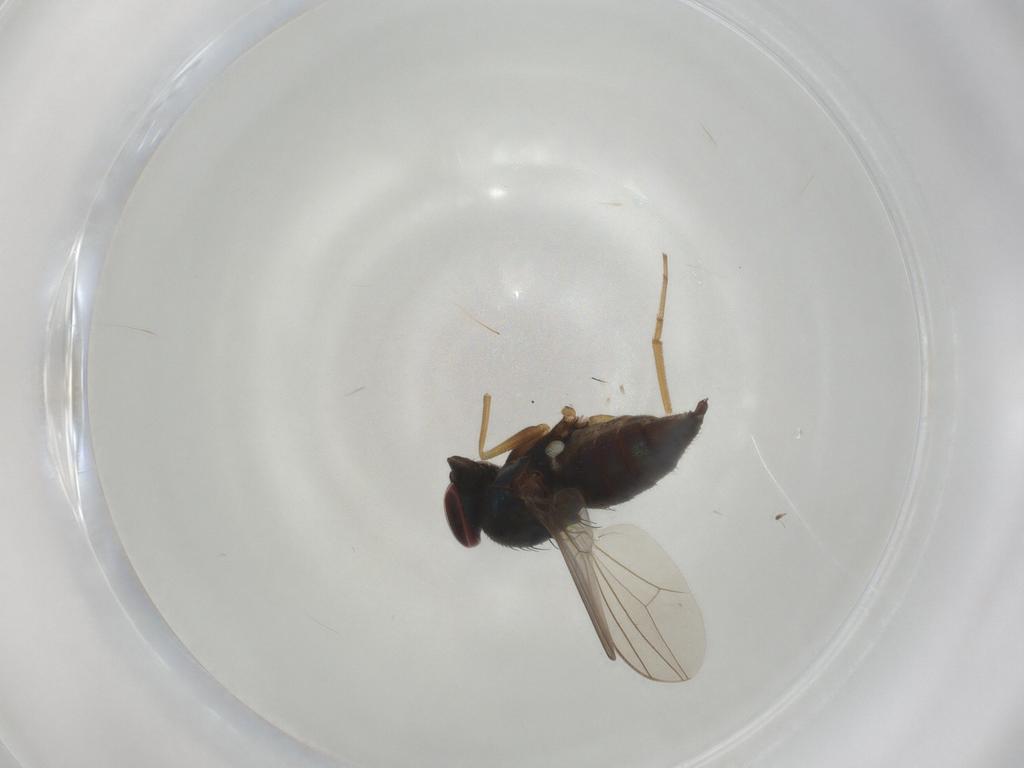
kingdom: Animalia
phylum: Arthropoda
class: Insecta
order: Diptera
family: Dolichopodidae
